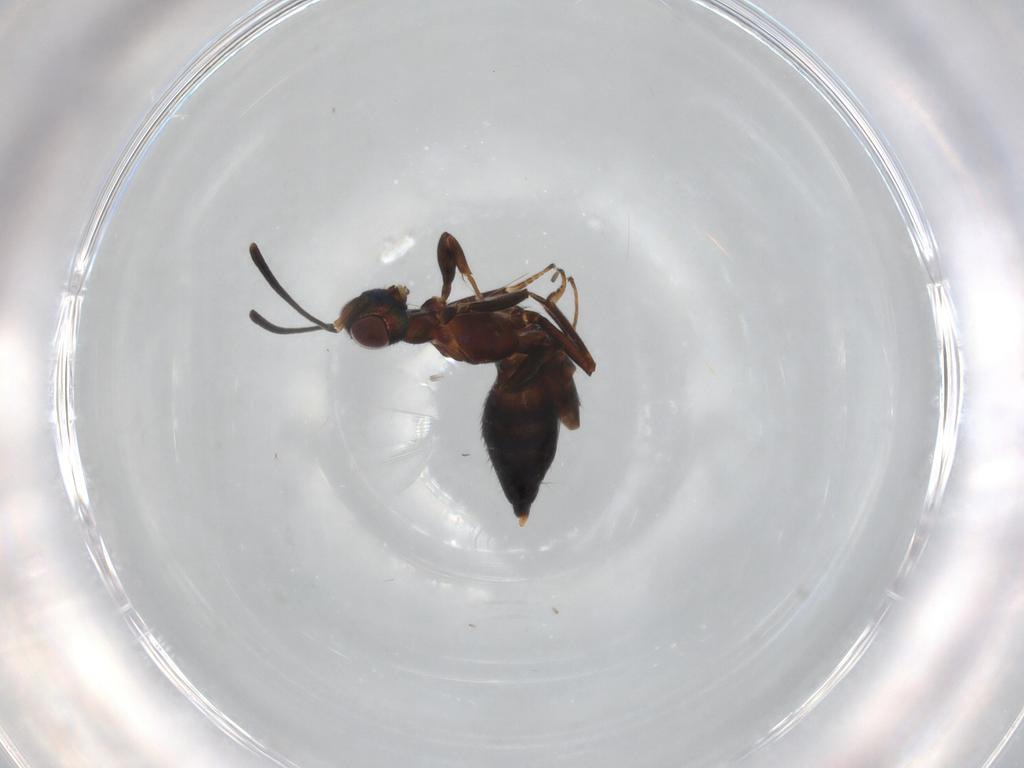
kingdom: Animalia
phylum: Arthropoda
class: Insecta
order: Hymenoptera
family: Eupelmidae
